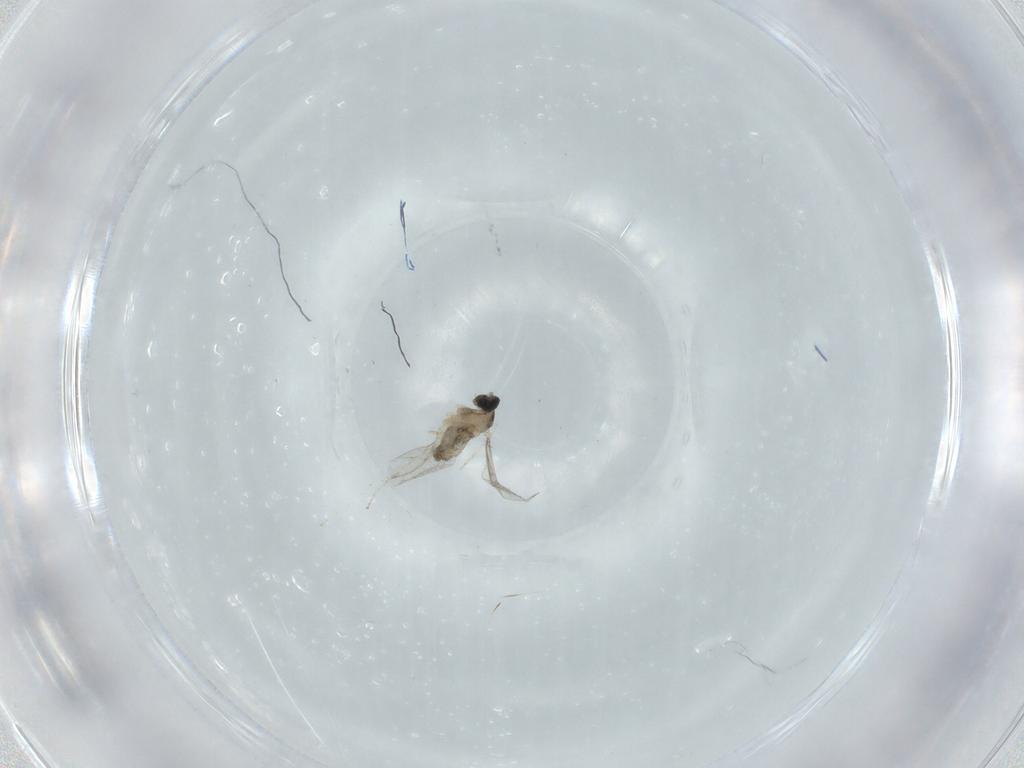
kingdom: Animalia
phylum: Arthropoda
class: Insecta
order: Diptera
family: Cecidomyiidae
